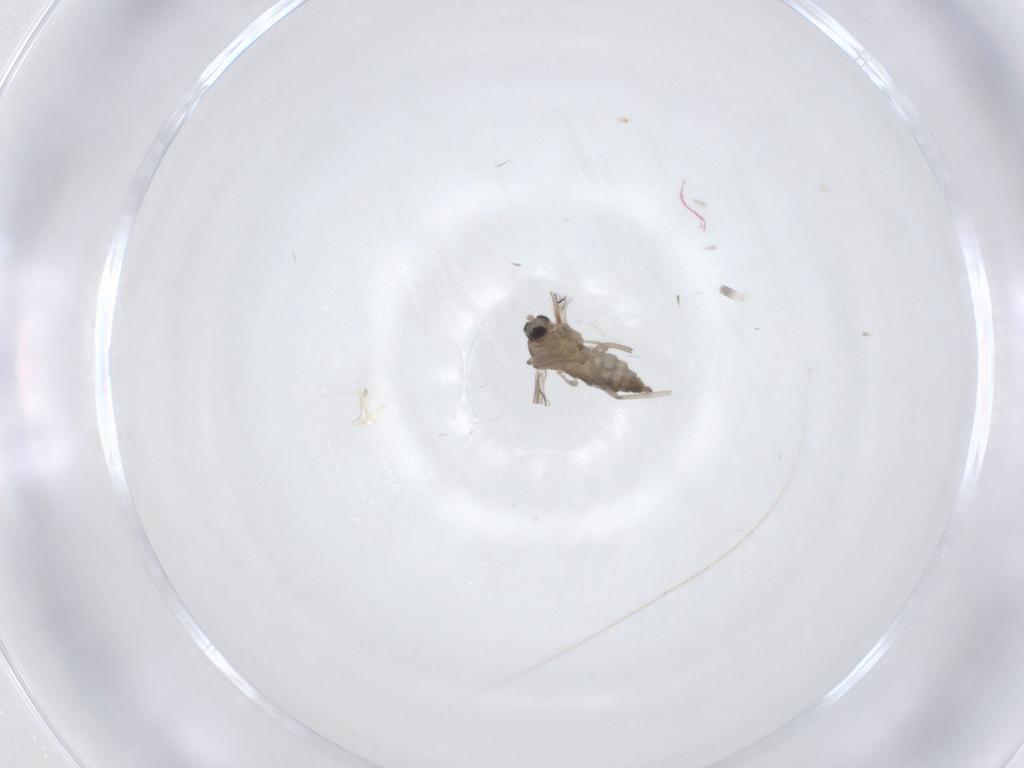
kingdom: Animalia
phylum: Arthropoda
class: Insecta
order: Diptera
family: Cecidomyiidae
